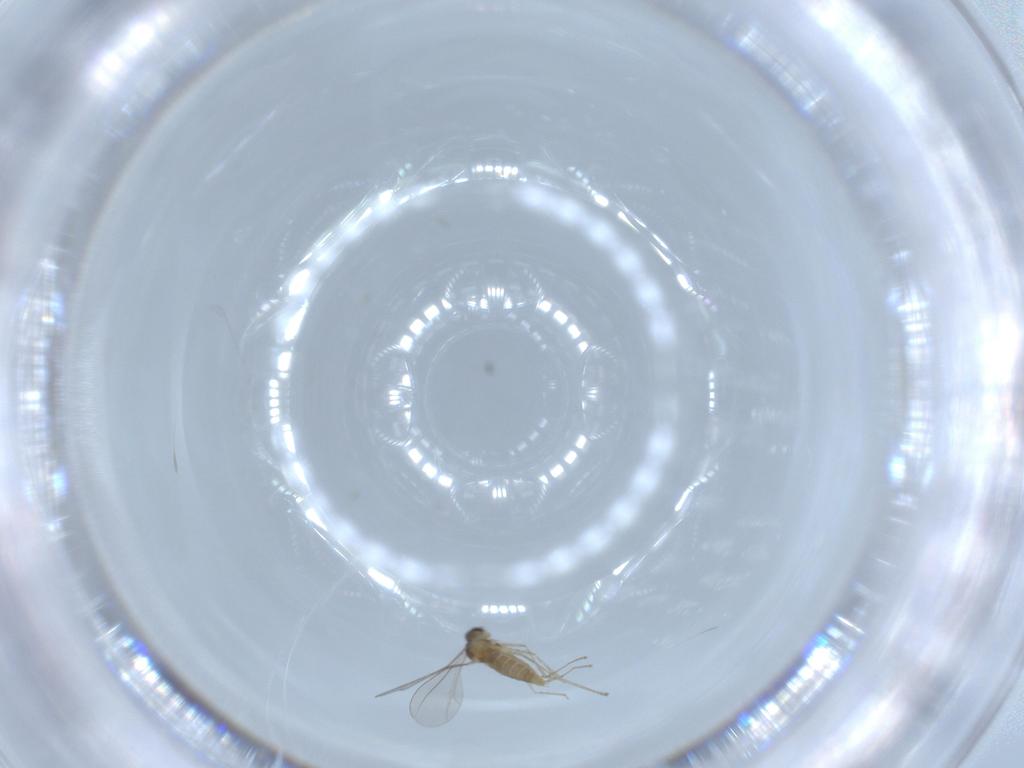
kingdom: Animalia
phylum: Arthropoda
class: Insecta
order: Diptera
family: Cecidomyiidae
